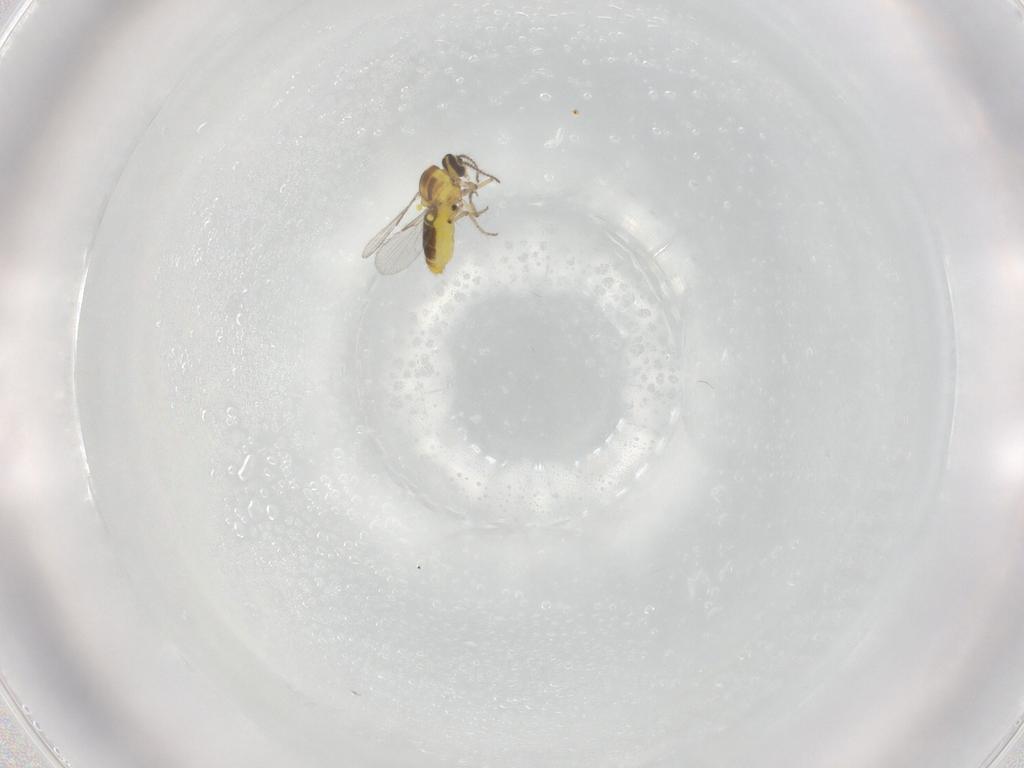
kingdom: Animalia
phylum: Arthropoda
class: Insecta
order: Diptera
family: Ceratopogonidae
